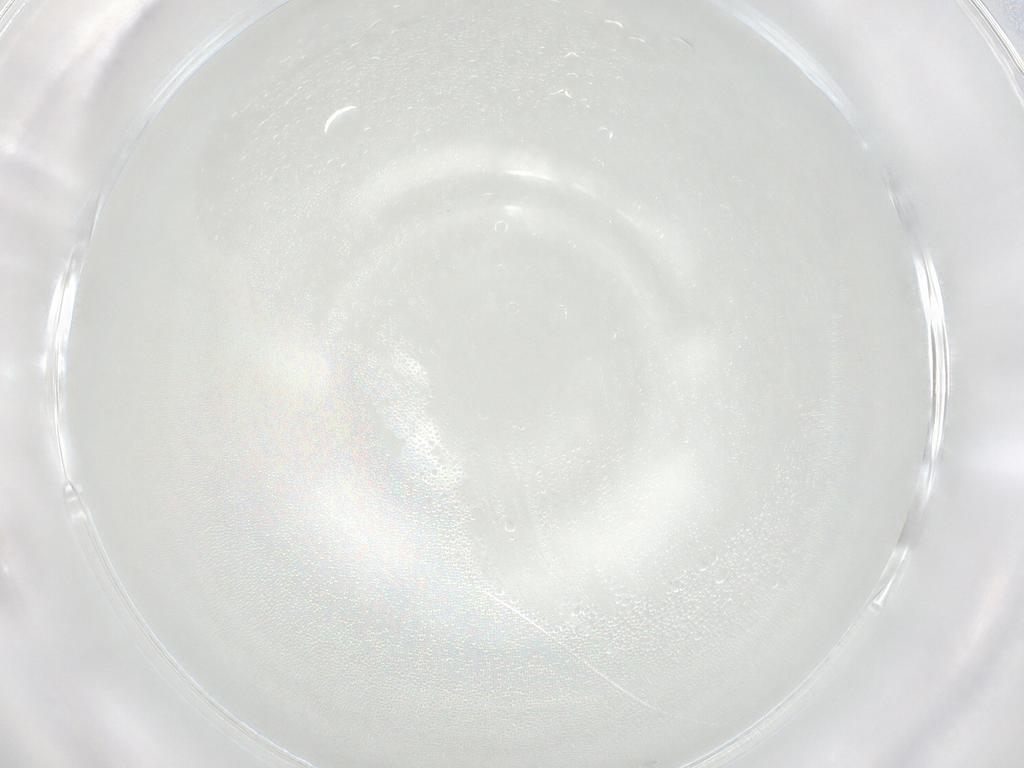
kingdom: Animalia
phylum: Arthropoda
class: Insecta
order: Diptera
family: Ceratopogonidae
